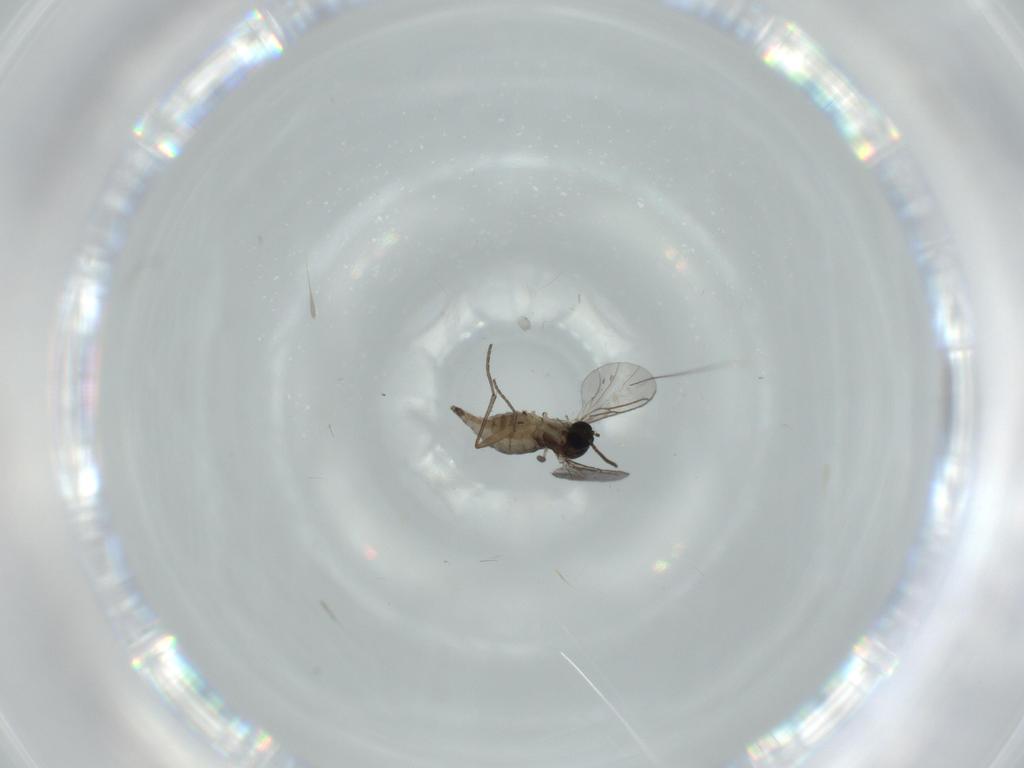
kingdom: Animalia
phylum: Arthropoda
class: Insecta
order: Diptera
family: Sciaridae
